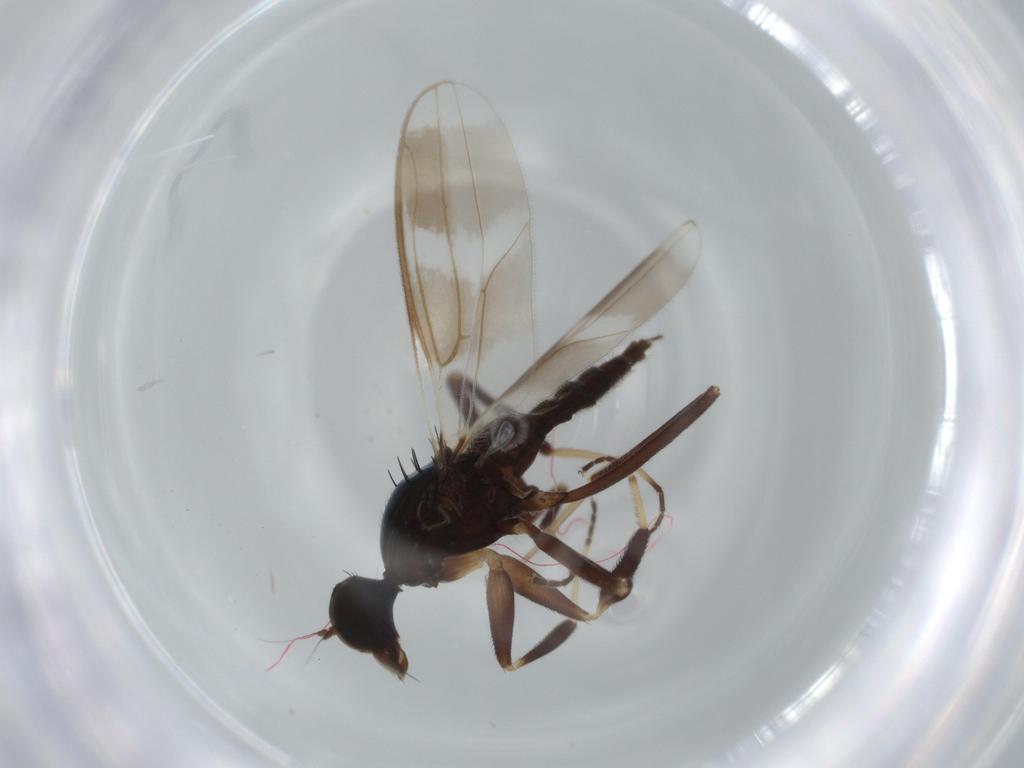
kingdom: Animalia
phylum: Arthropoda
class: Insecta
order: Diptera
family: Hybotidae
